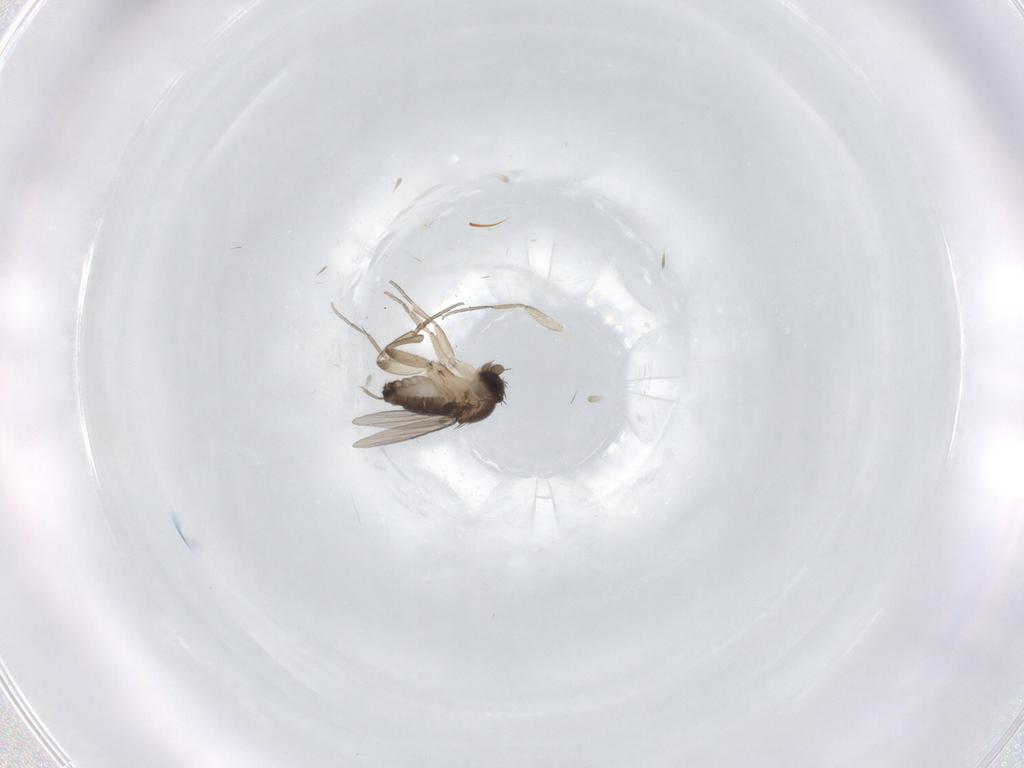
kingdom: Animalia
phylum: Arthropoda
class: Insecta
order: Diptera
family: Phoridae
